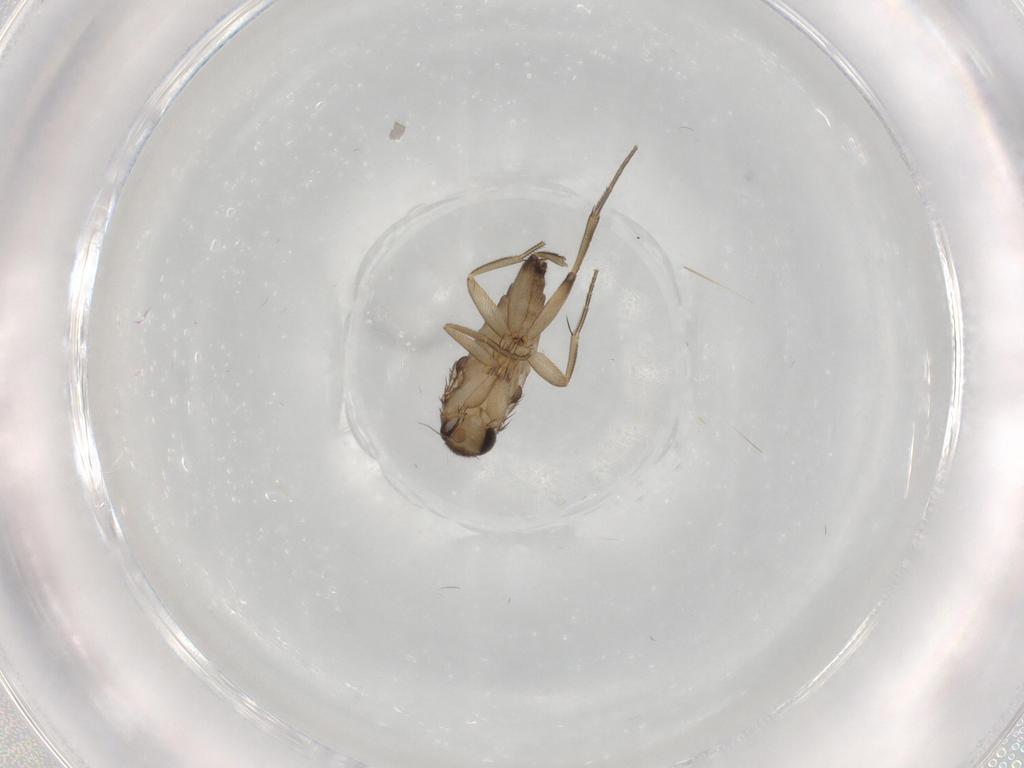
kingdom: Animalia
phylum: Arthropoda
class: Insecta
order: Diptera
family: Phoridae
